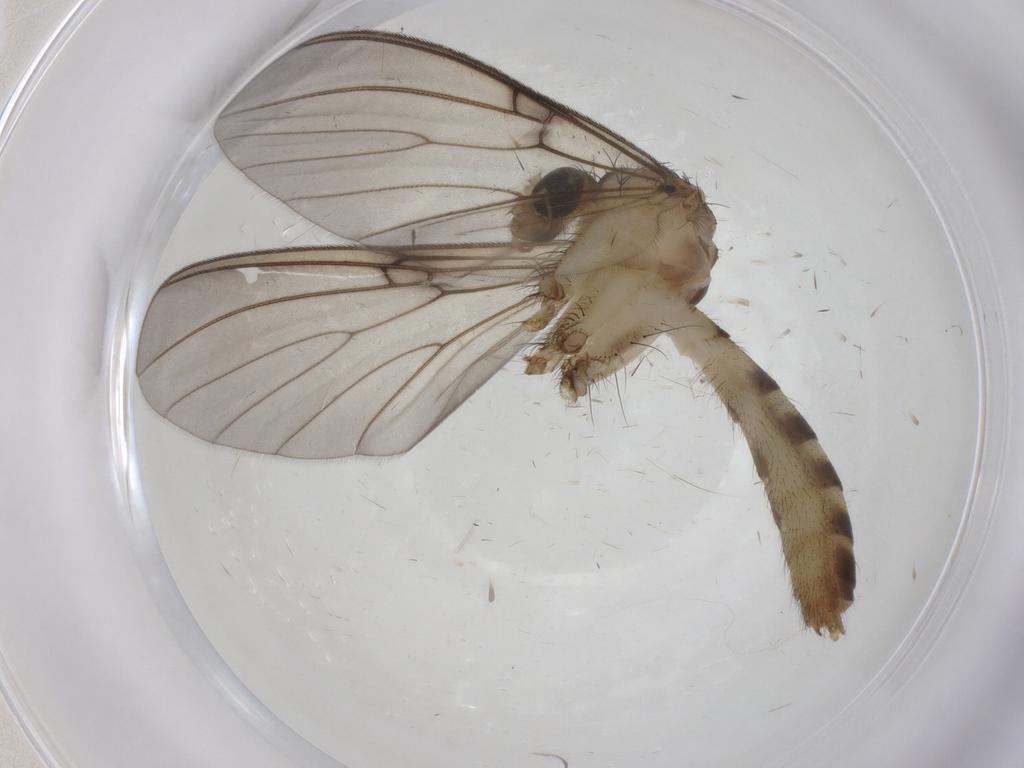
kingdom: Animalia
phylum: Arthropoda
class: Insecta
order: Diptera
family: Mycetophilidae
